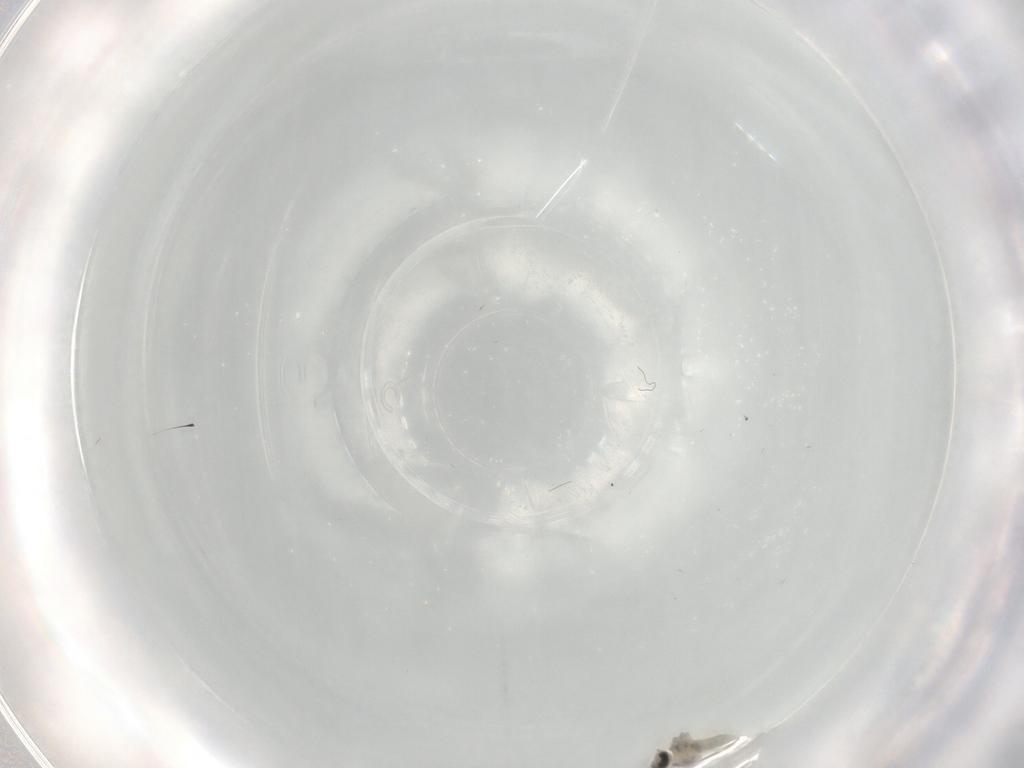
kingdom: Animalia
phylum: Arthropoda
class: Insecta
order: Diptera
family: Cecidomyiidae
